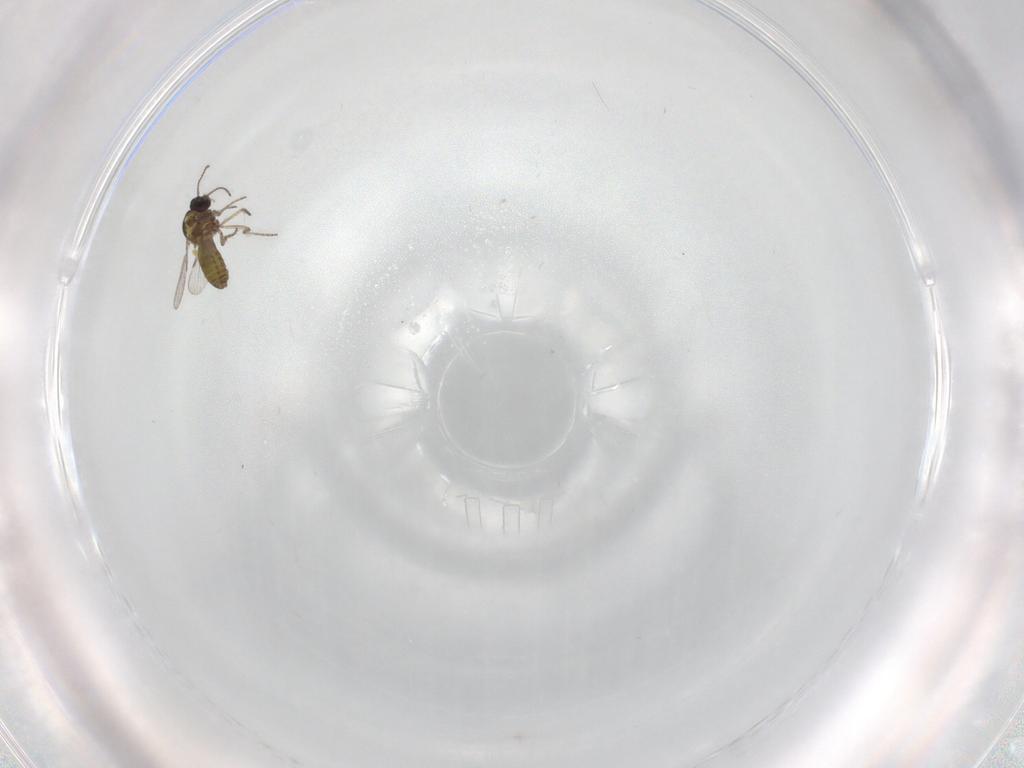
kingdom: Animalia
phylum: Arthropoda
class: Insecta
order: Diptera
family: Ceratopogonidae
